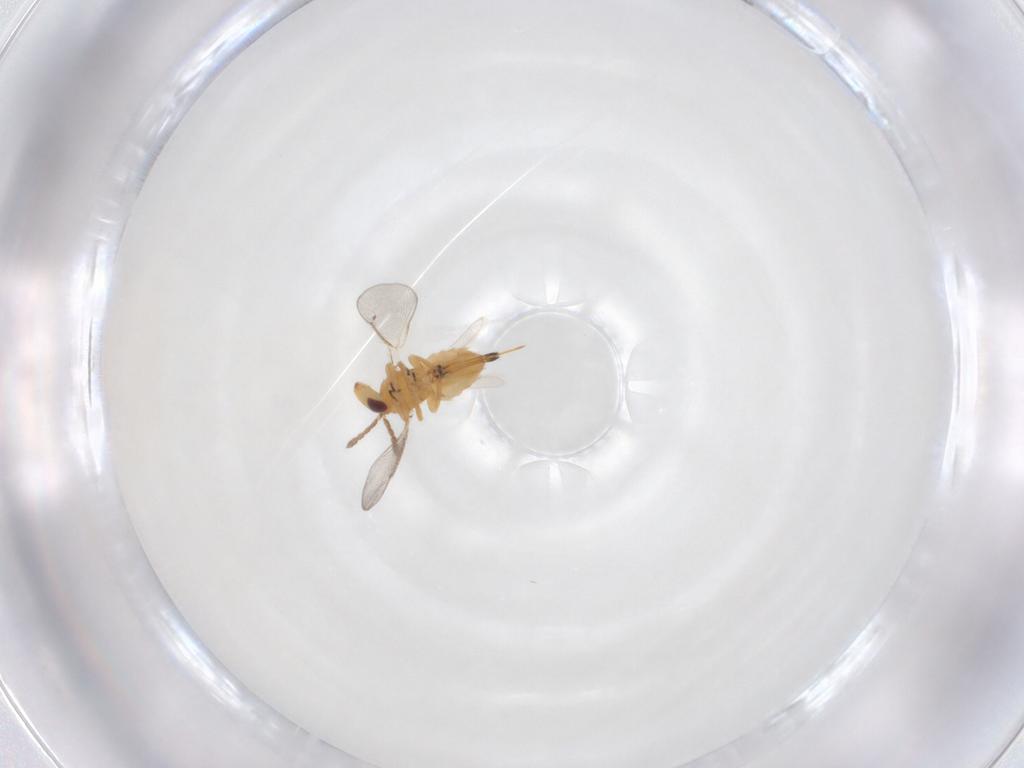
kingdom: Animalia
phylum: Arthropoda
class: Insecta
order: Hymenoptera
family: Eulophidae
